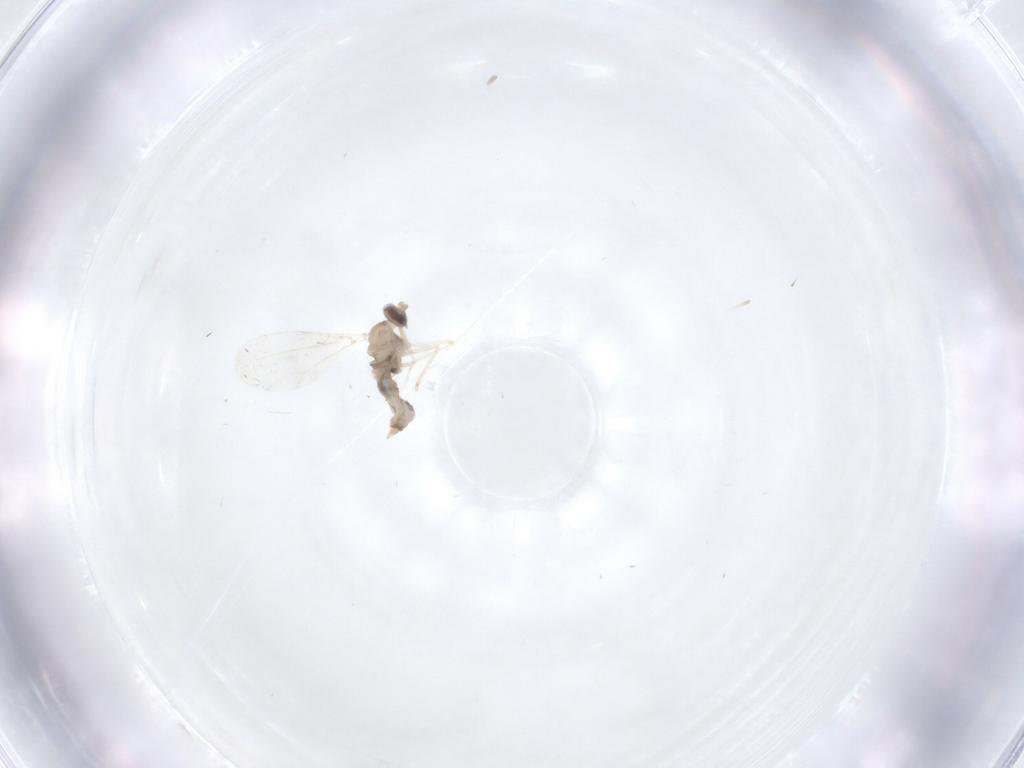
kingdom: Animalia
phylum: Arthropoda
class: Insecta
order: Diptera
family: Cecidomyiidae
